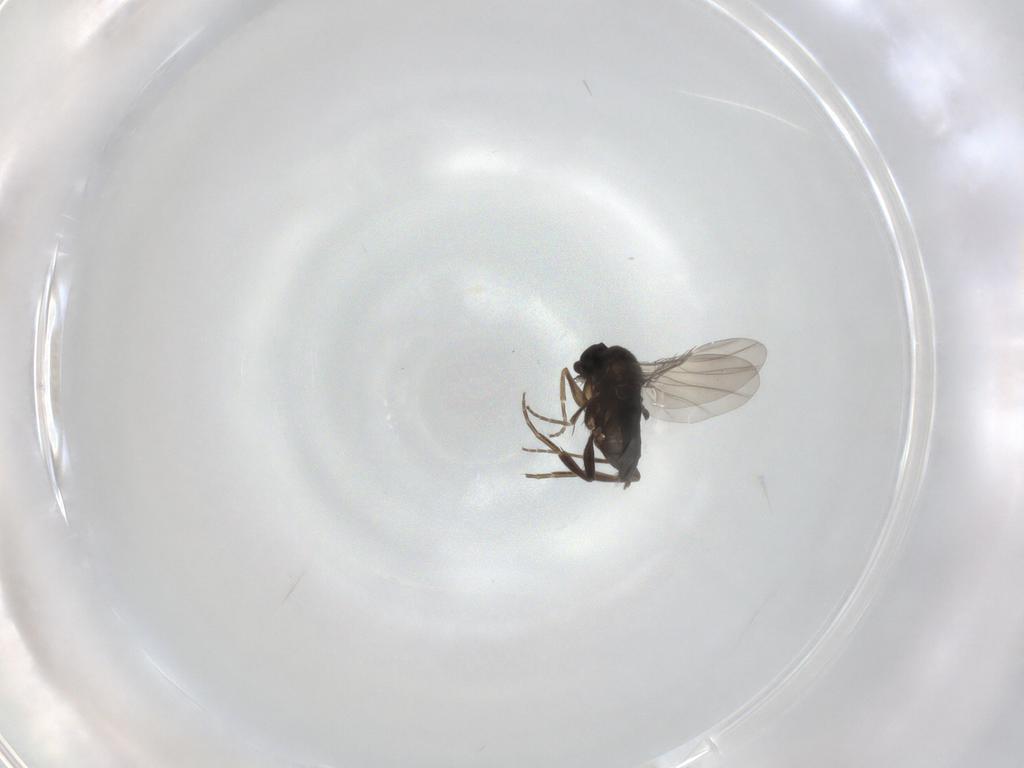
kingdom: Animalia
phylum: Arthropoda
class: Insecta
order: Diptera
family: Phoridae
